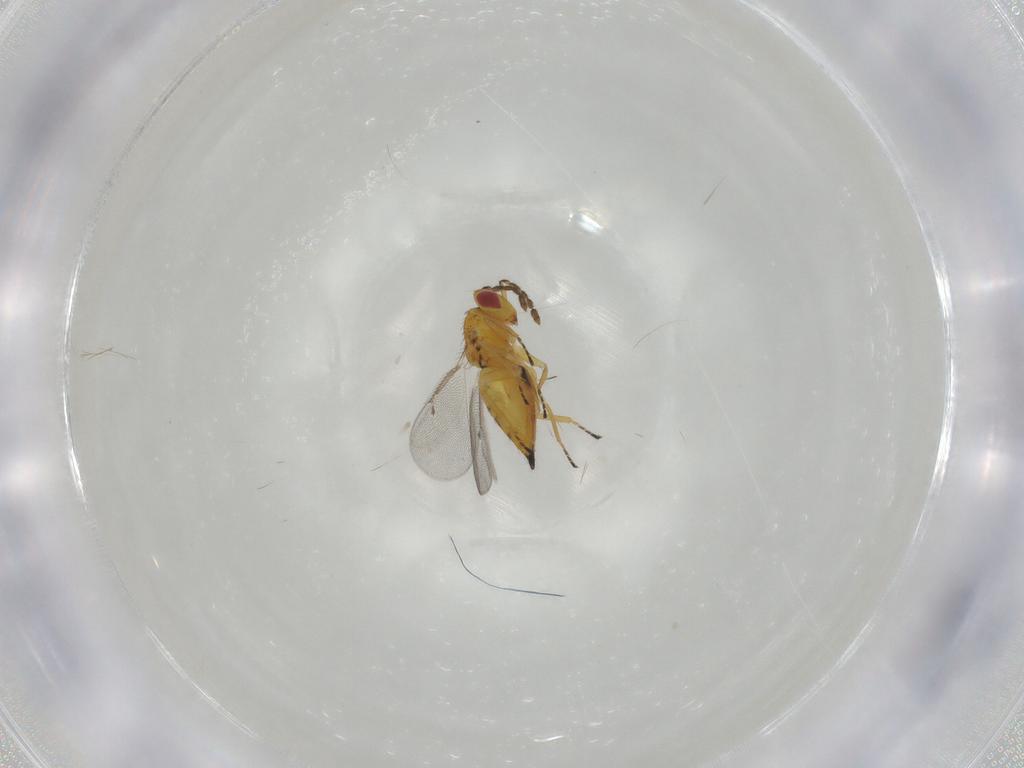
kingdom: Animalia
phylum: Arthropoda
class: Insecta
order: Hymenoptera
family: Eulophidae
